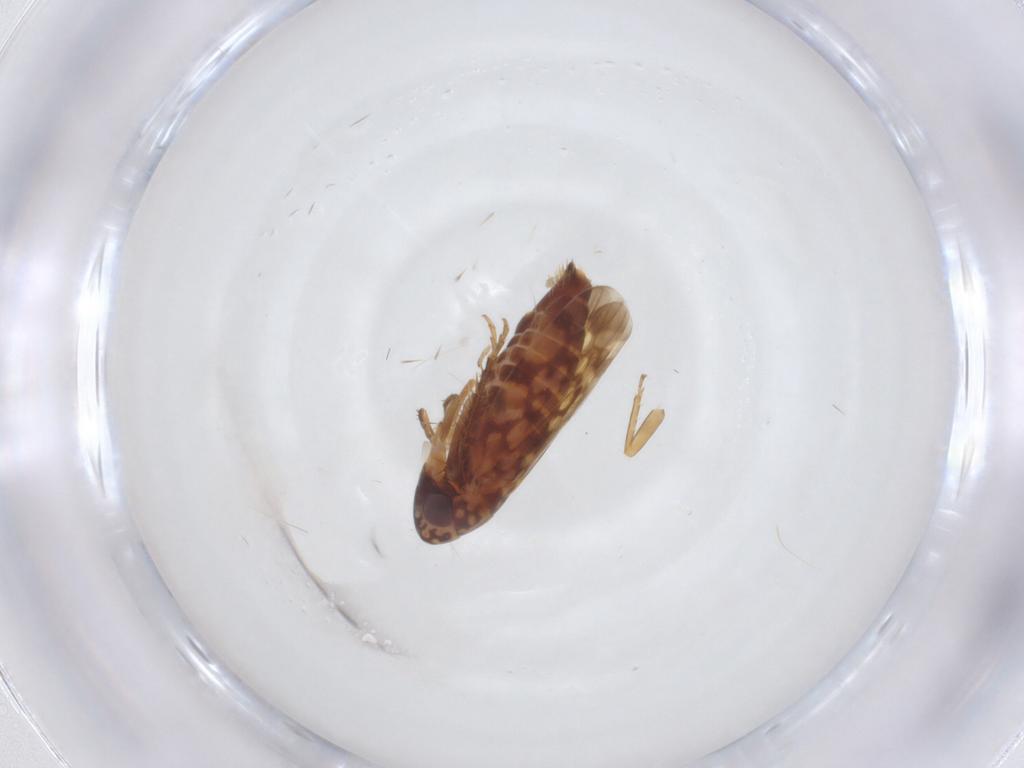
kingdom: Animalia
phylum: Arthropoda
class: Insecta
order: Hemiptera
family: Cicadellidae
